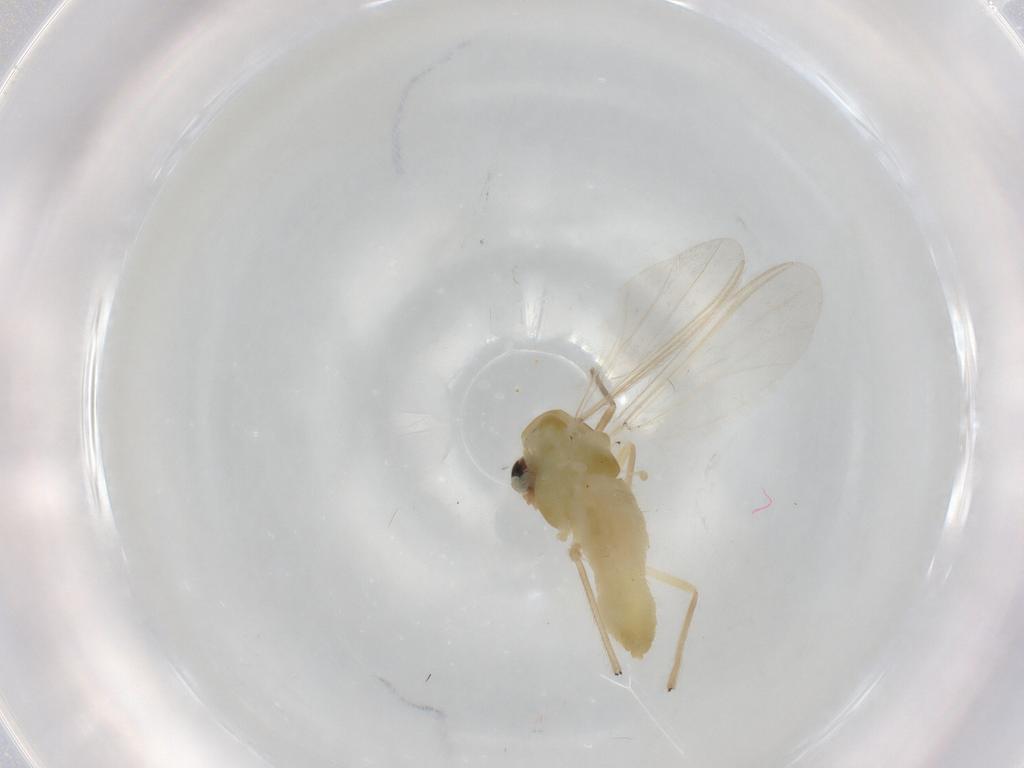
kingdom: Animalia
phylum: Arthropoda
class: Insecta
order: Diptera
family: Chironomidae
